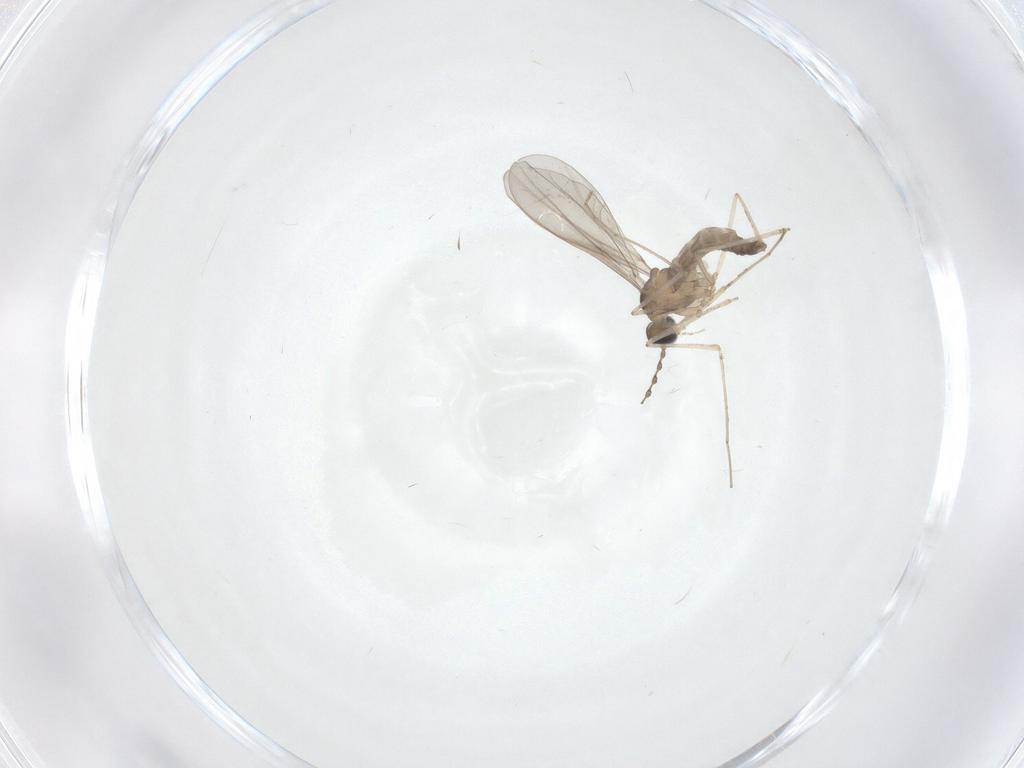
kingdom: Animalia
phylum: Arthropoda
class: Insecta
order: Diptera
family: Cecidomyiidae
